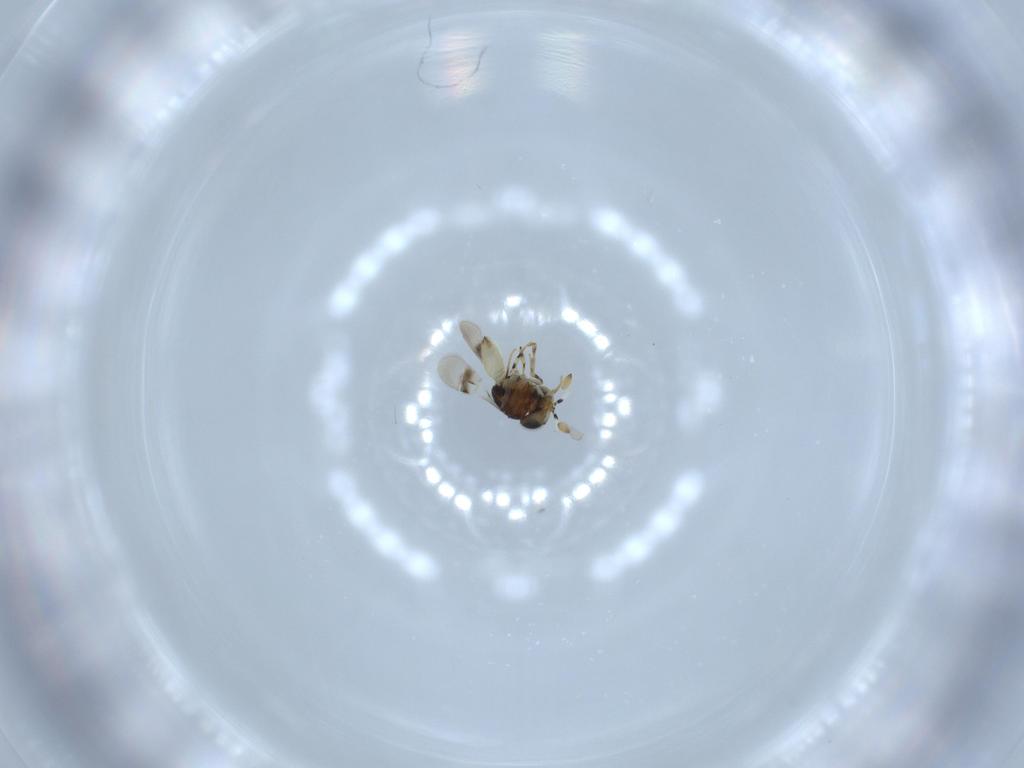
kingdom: Animalia
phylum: Arthropoda
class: Insecta
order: Hymenoptera
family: Scelionidae
